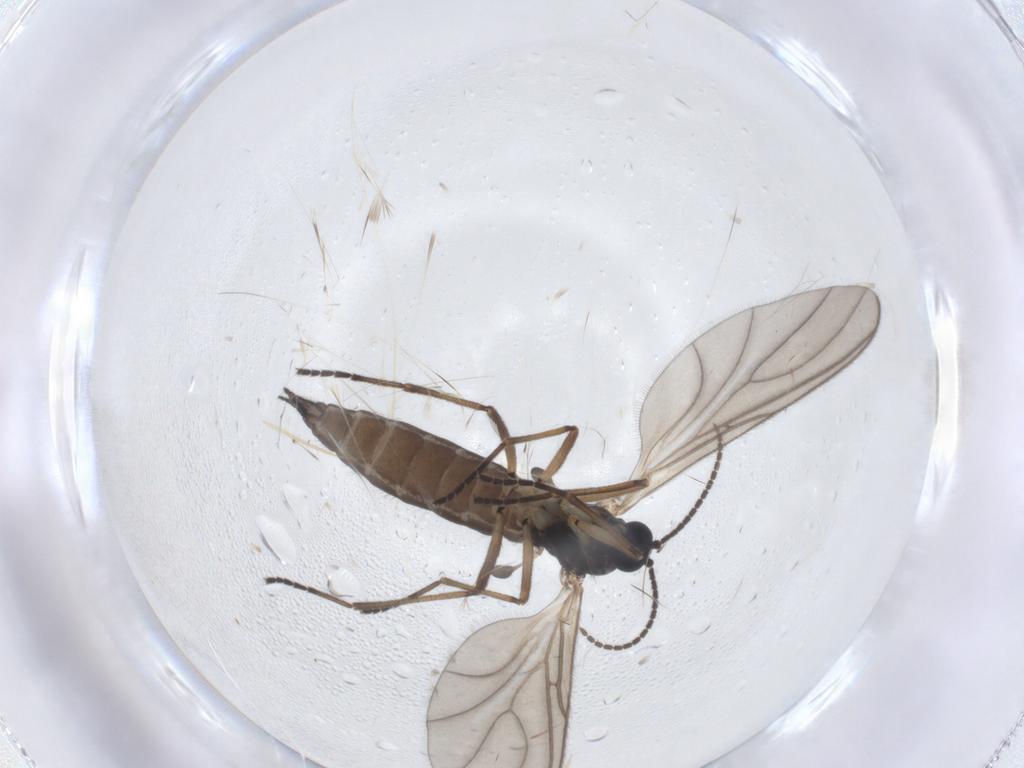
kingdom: Animalia
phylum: Arthropoda
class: Insecta
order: Diptera
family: Sciaridae
